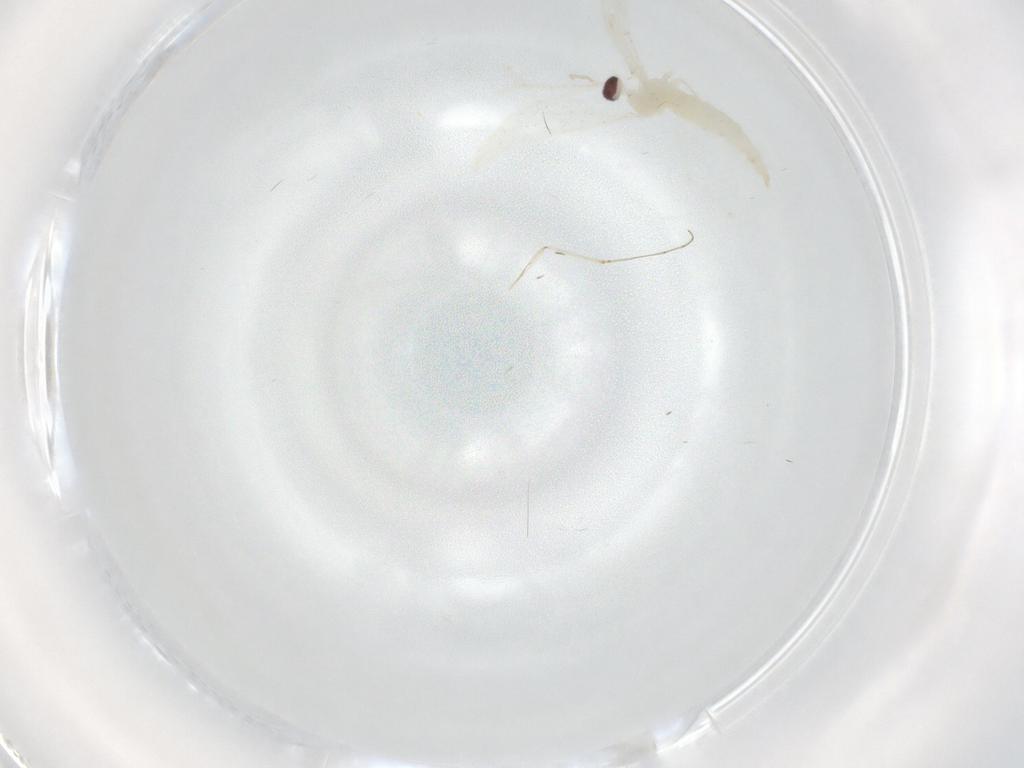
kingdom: Animalia
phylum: Arthropoda
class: Insecta
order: Diptera
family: Cecidomyiidae
